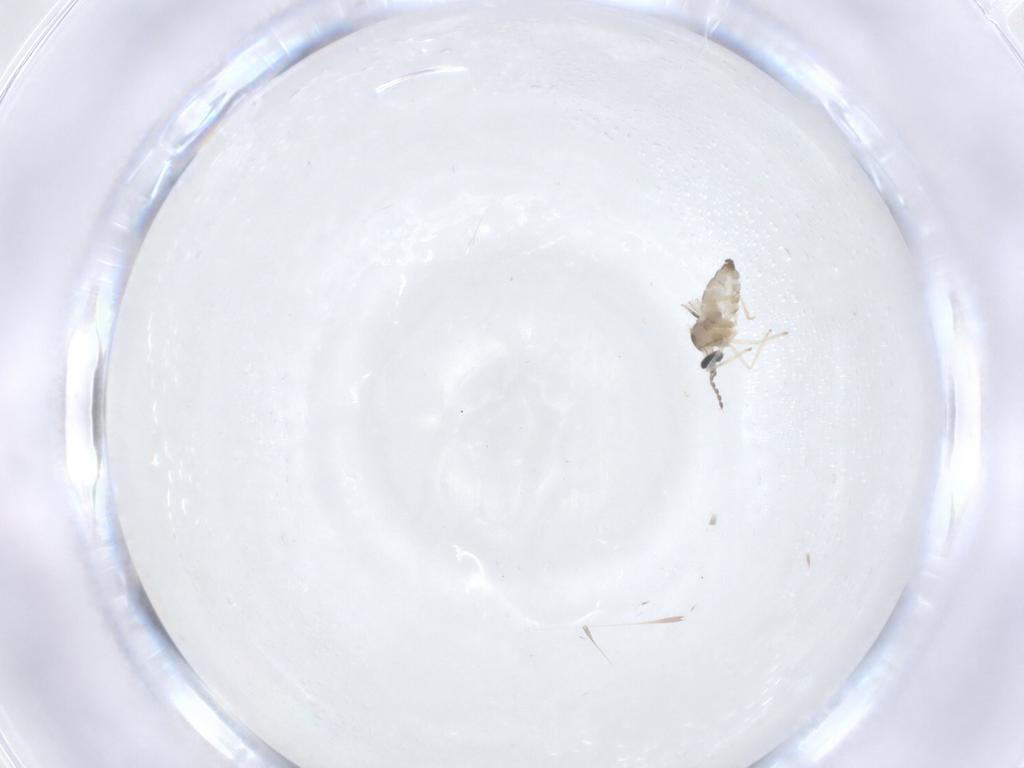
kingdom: Animalia
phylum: Arthropoda
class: Insecta
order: Diptera
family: Cecidomyiidae
